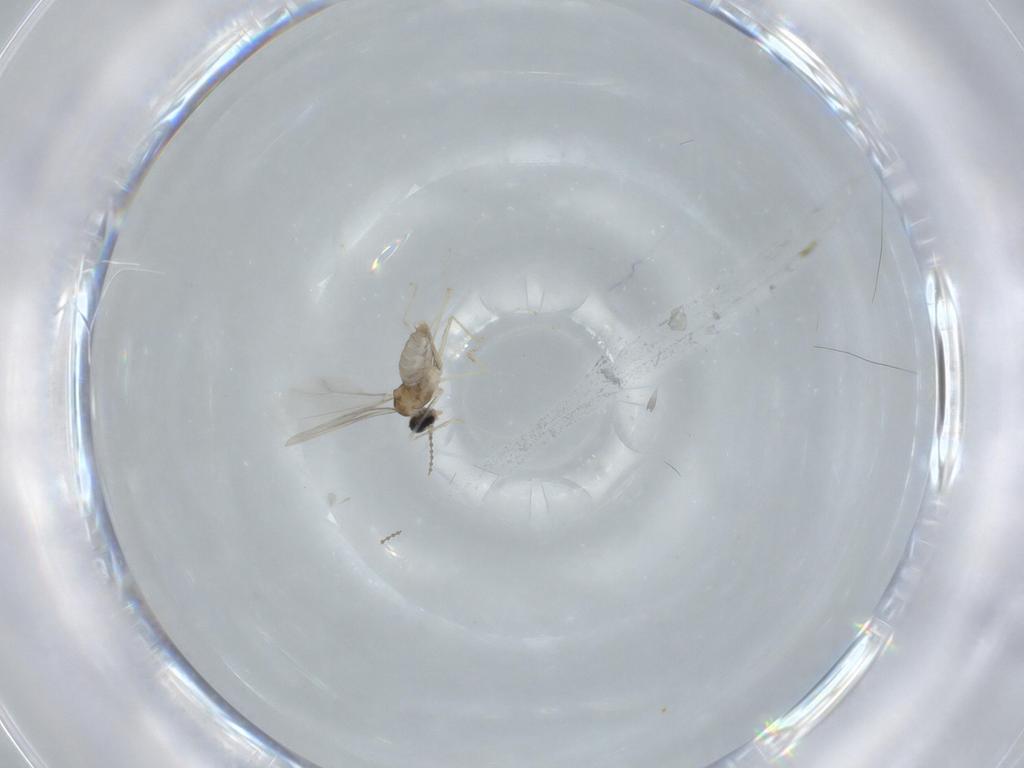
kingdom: Animalia
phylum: Arthropoda
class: Insecta
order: Diptera
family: Cecidomyiidae
